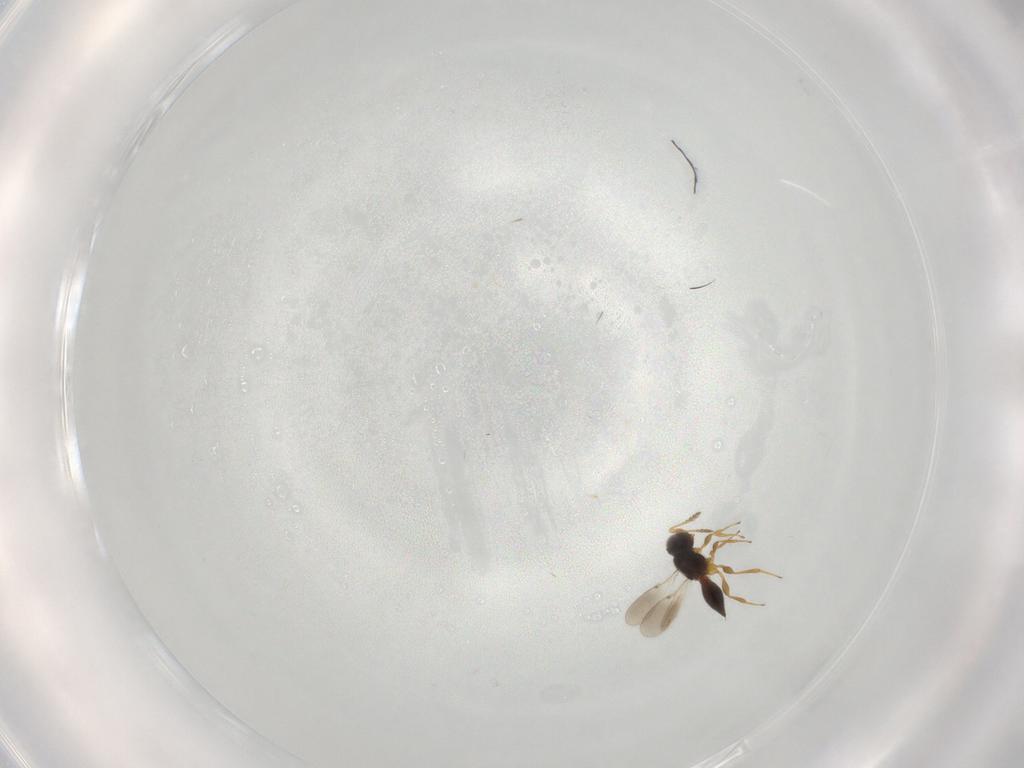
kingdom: Animalia
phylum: Arthropoda
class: Insecta
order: Hymenoptera
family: Platygastridae
